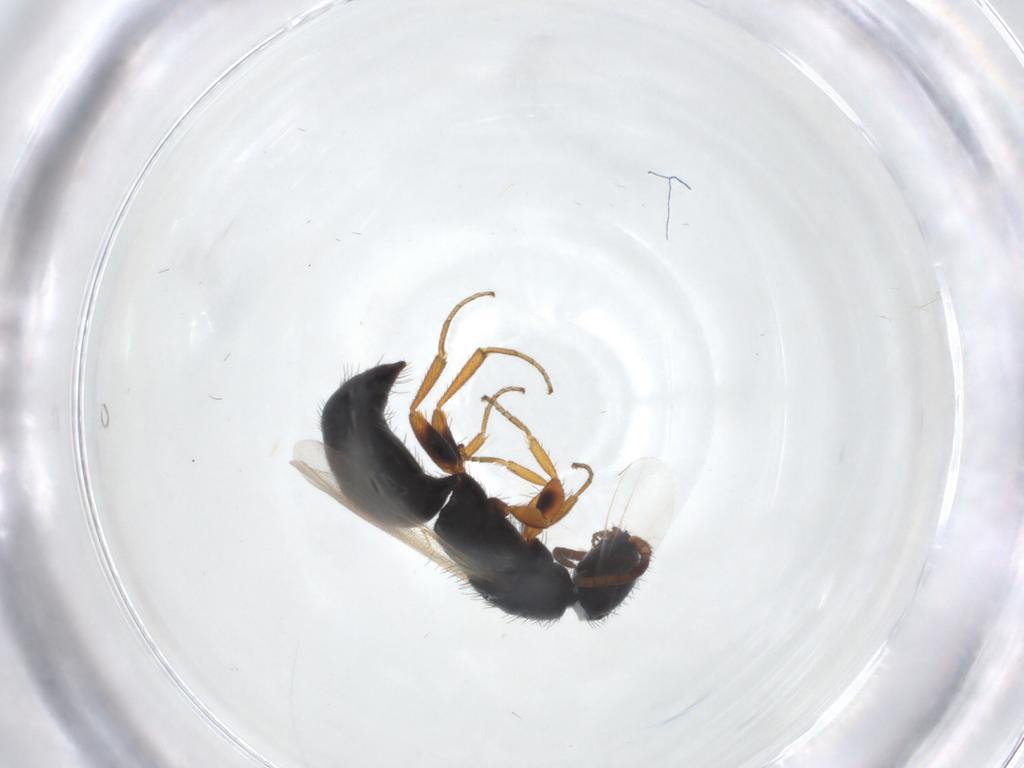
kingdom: Animalia
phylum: Arthropoda
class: Insecta
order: Hymenoptera
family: Bethylidae
